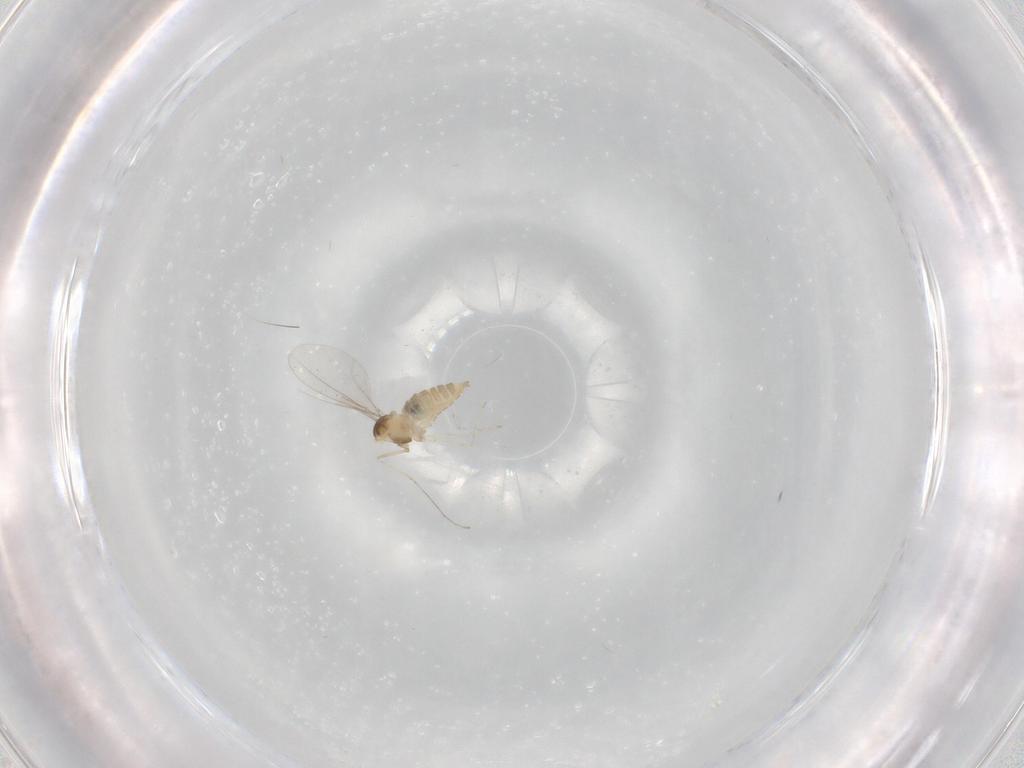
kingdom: Animalia
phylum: Arthropoda
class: Insecta
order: Diptera
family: Cecidomyiidae
